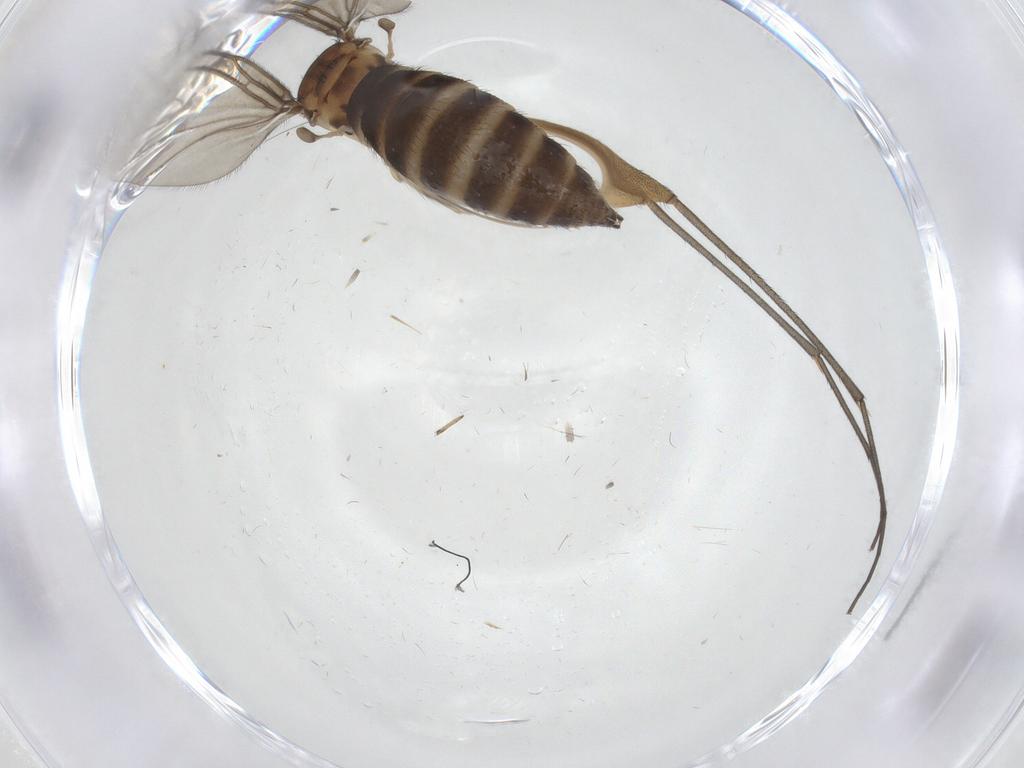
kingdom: Animalia
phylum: Arthropoda
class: Insecta
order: Diptera
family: Sciaridae
